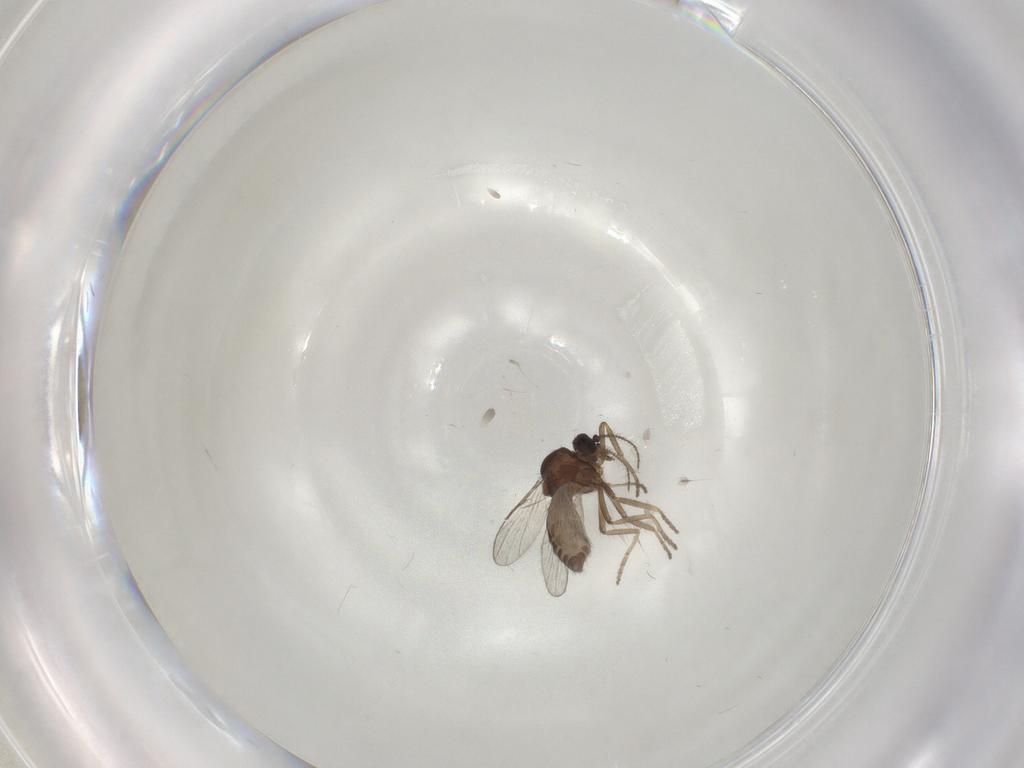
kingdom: Animalia
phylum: Arthropoda
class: Insecta
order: Diptera
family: Ceratopogonidae
